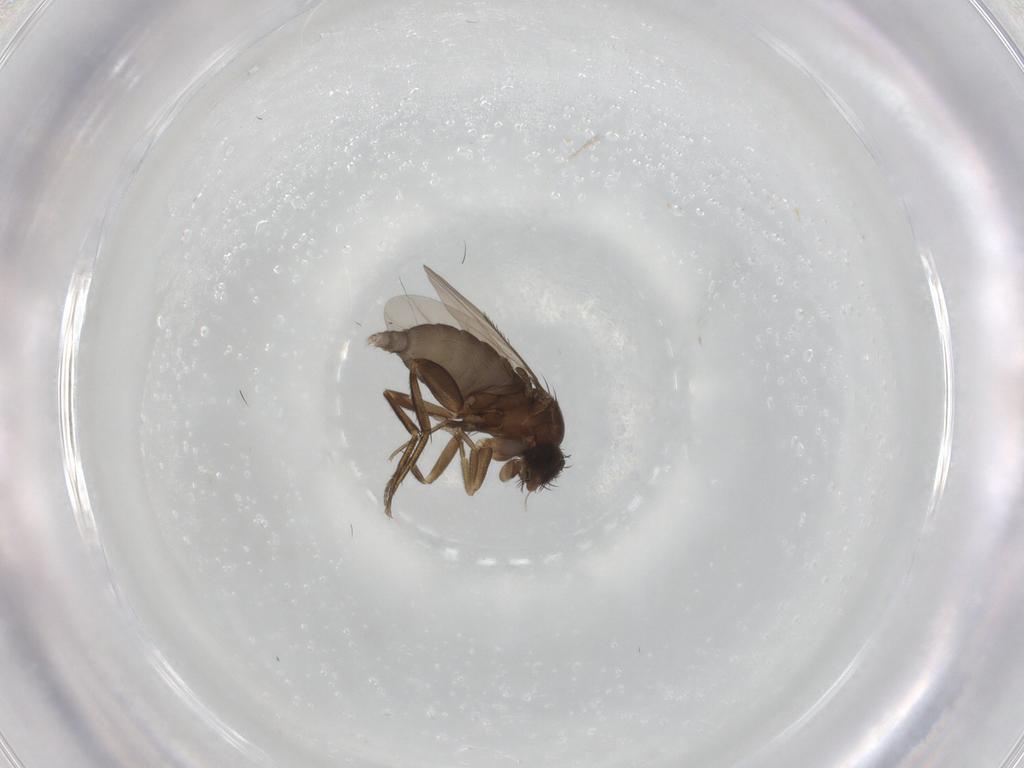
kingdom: Animalia
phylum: Arthropoda
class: Insecta
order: Diptera
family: Phoridae
